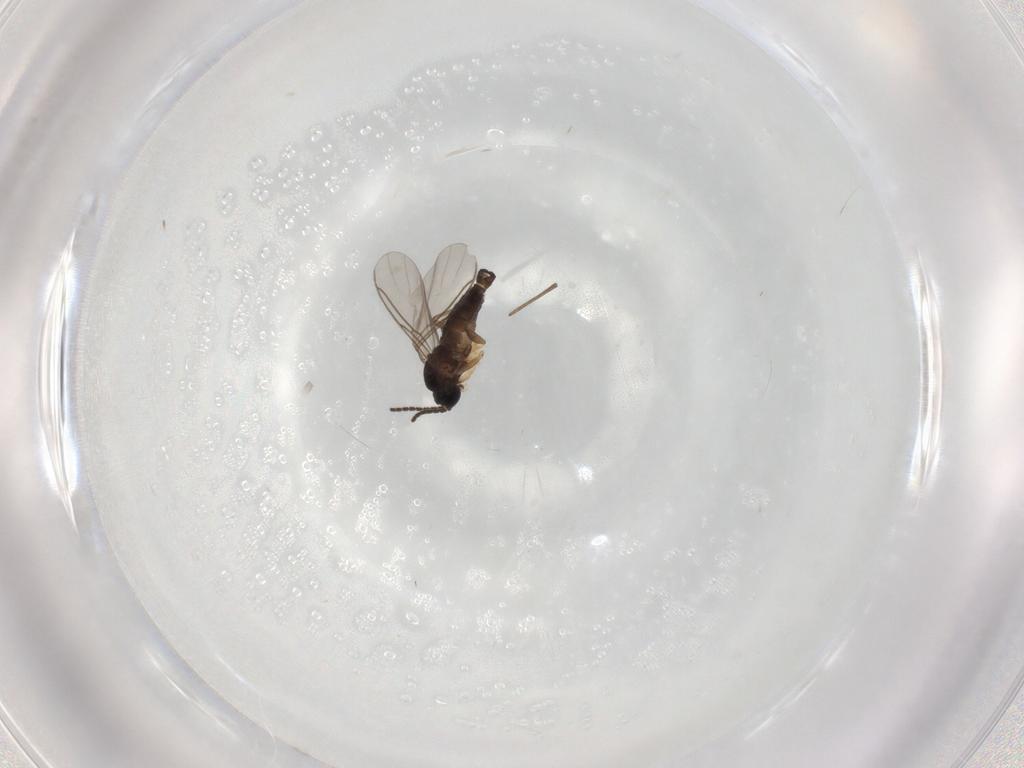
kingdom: Animalia
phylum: Arthropoda
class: Insecta
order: Diptera
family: Sciaridae
